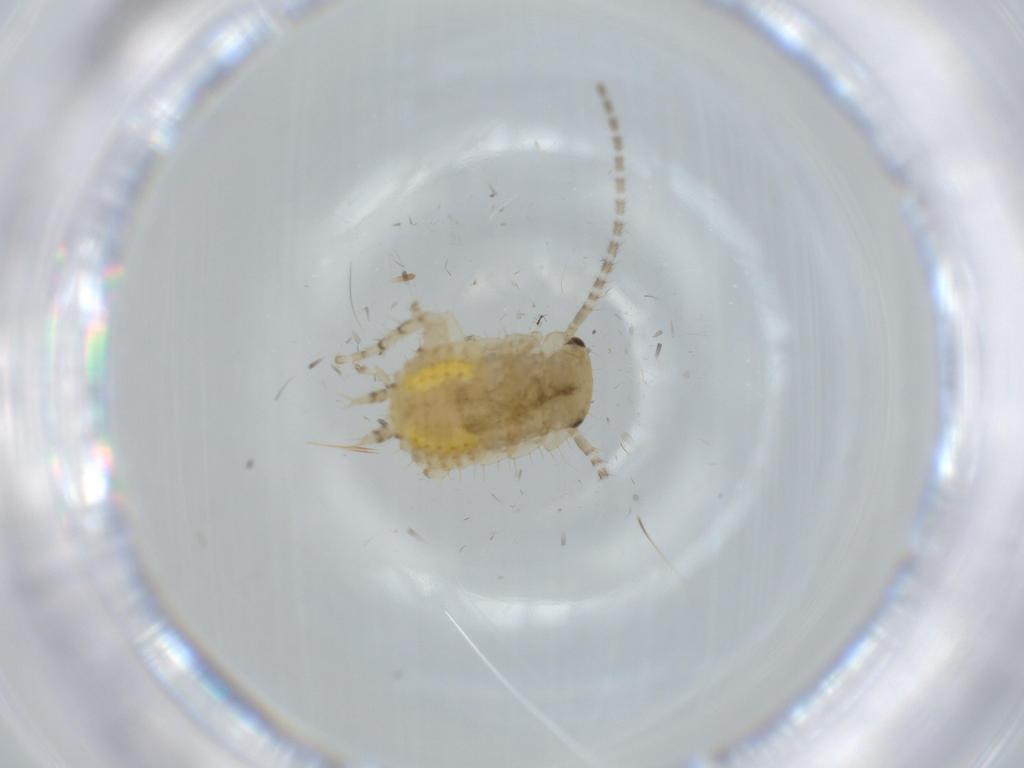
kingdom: Animalia
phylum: Arthropoda
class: Insecta
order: Blattodea
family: Ectobiidae
